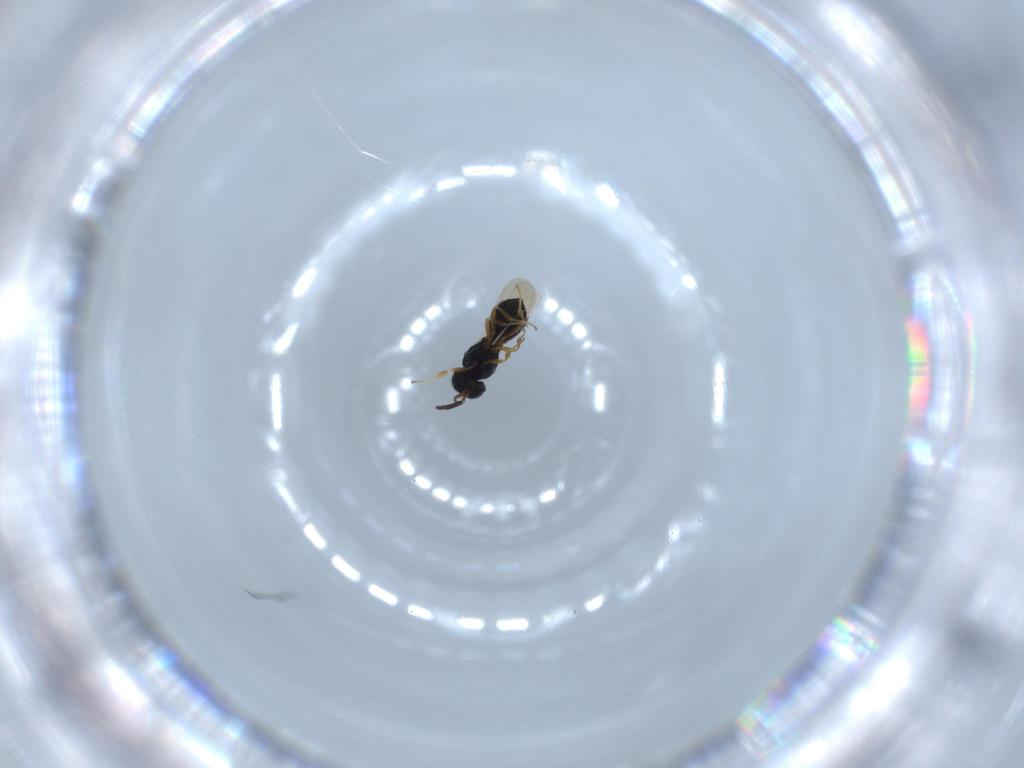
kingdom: Animalia
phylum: Arthropoda
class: Insecta
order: Hymenoptera
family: Scelionidae
